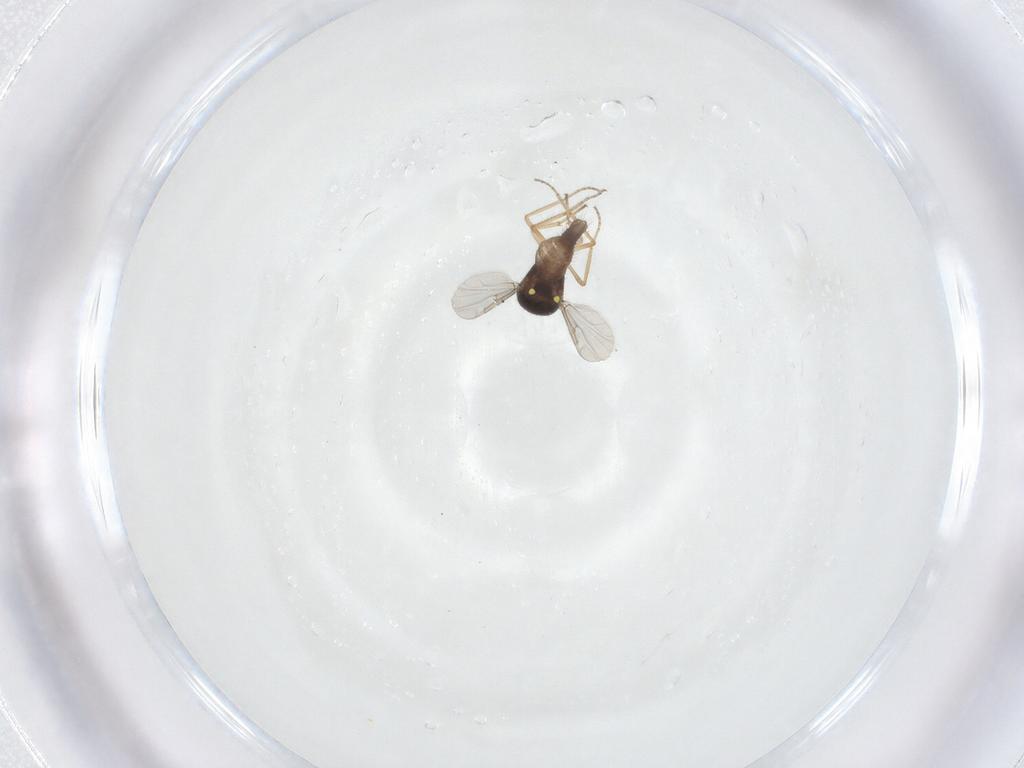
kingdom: Animalia
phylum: Arthropoda
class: Insecta
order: Diptera
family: Ceratopogonidae
